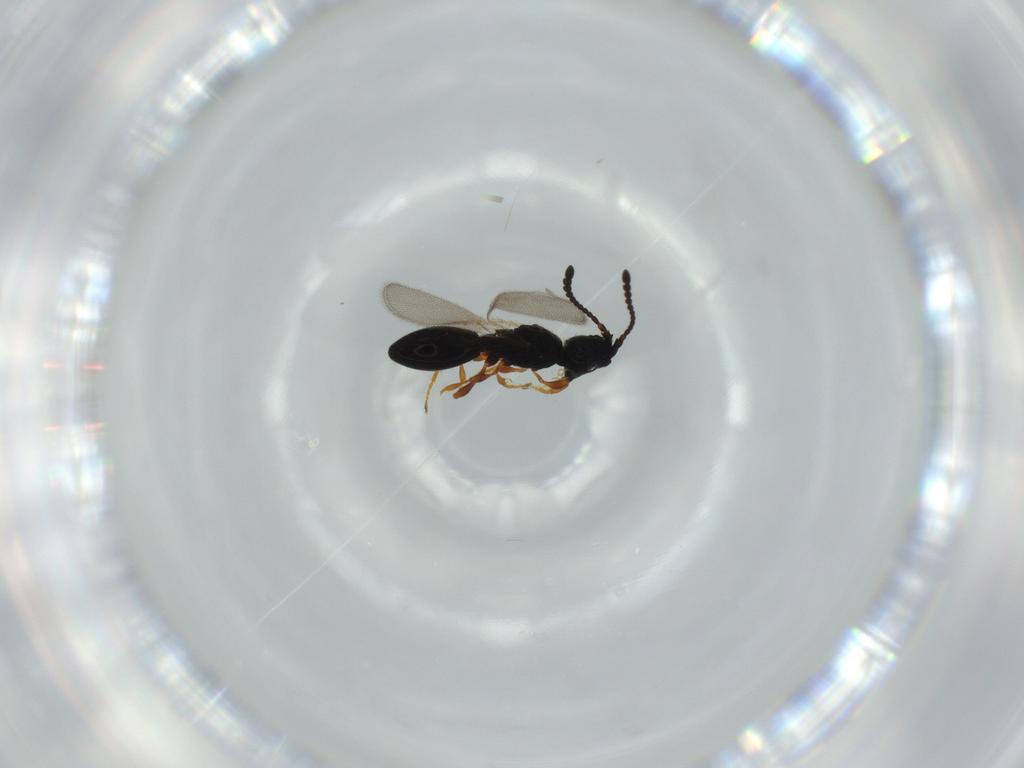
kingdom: Animalia
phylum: Arthropoda
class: Insecta
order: Hymenoptera
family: Diapriidae
